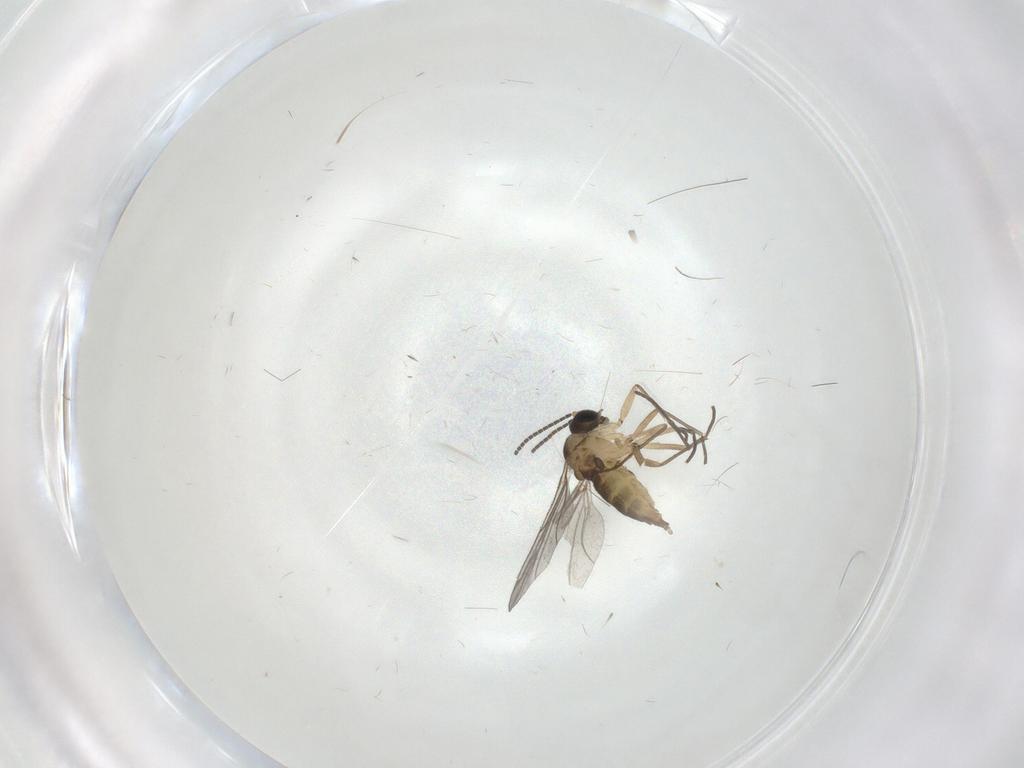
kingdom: Animalia
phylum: Arthropoda
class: Insecta
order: Diptera
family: Sciaridae
